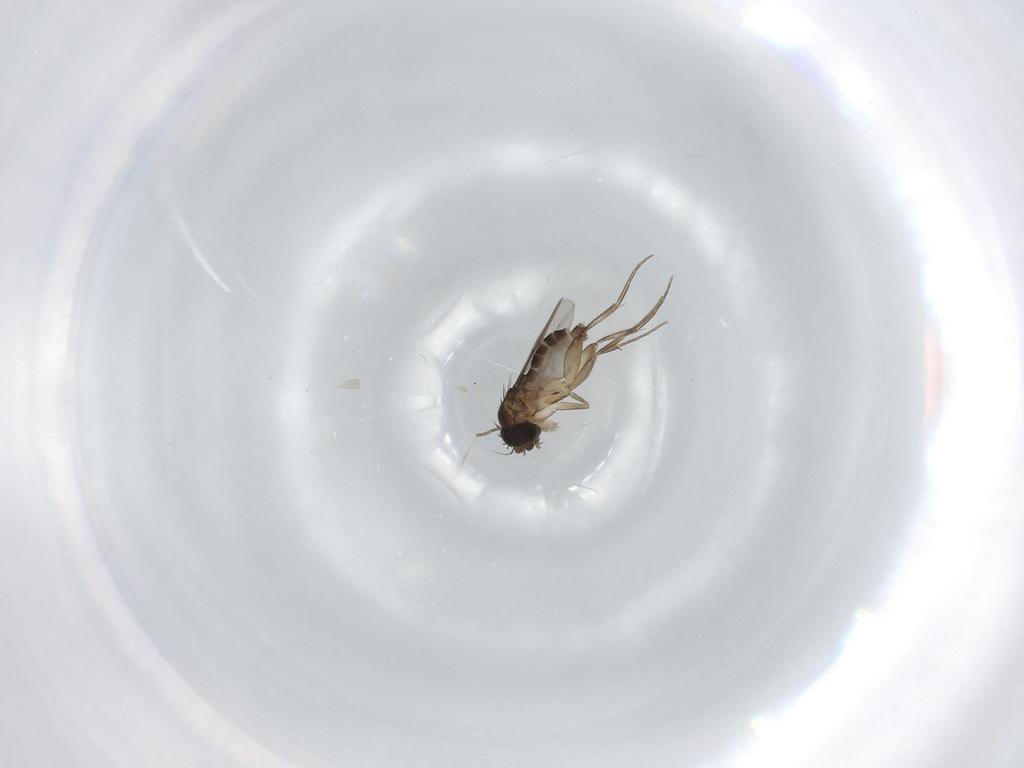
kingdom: Animalia
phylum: Arthropoda
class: Insecta
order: Diptera
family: Phoridae
